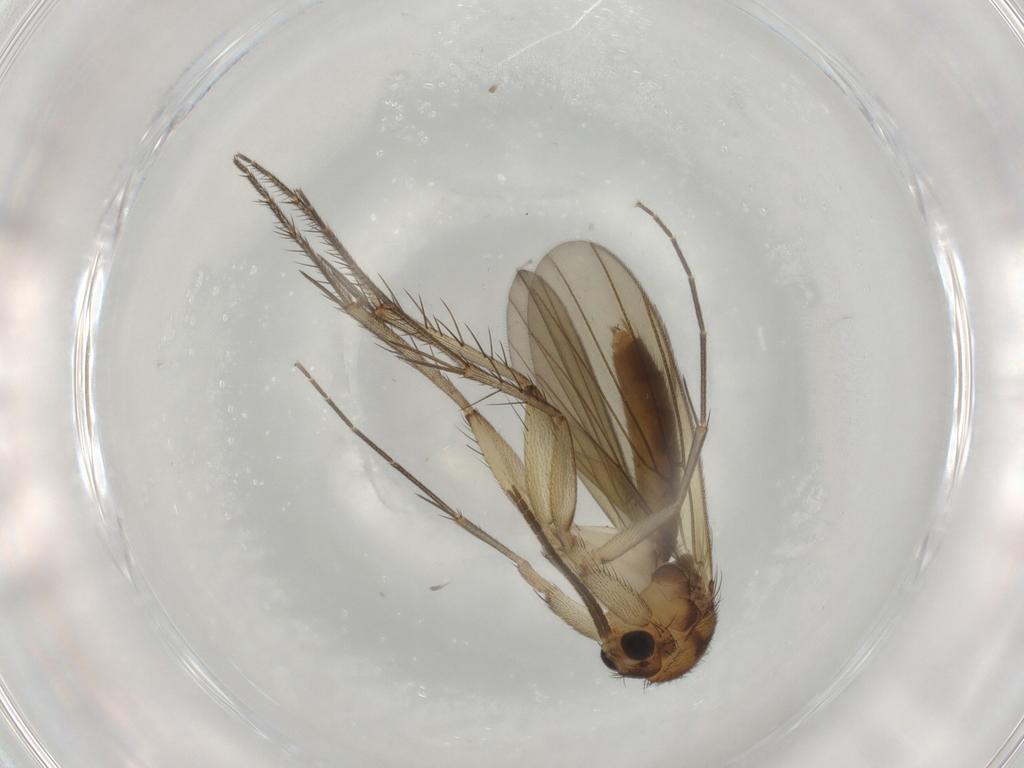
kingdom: Animalia
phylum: Arthropoda
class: Insecta
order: Diptera
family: Hybotidae
